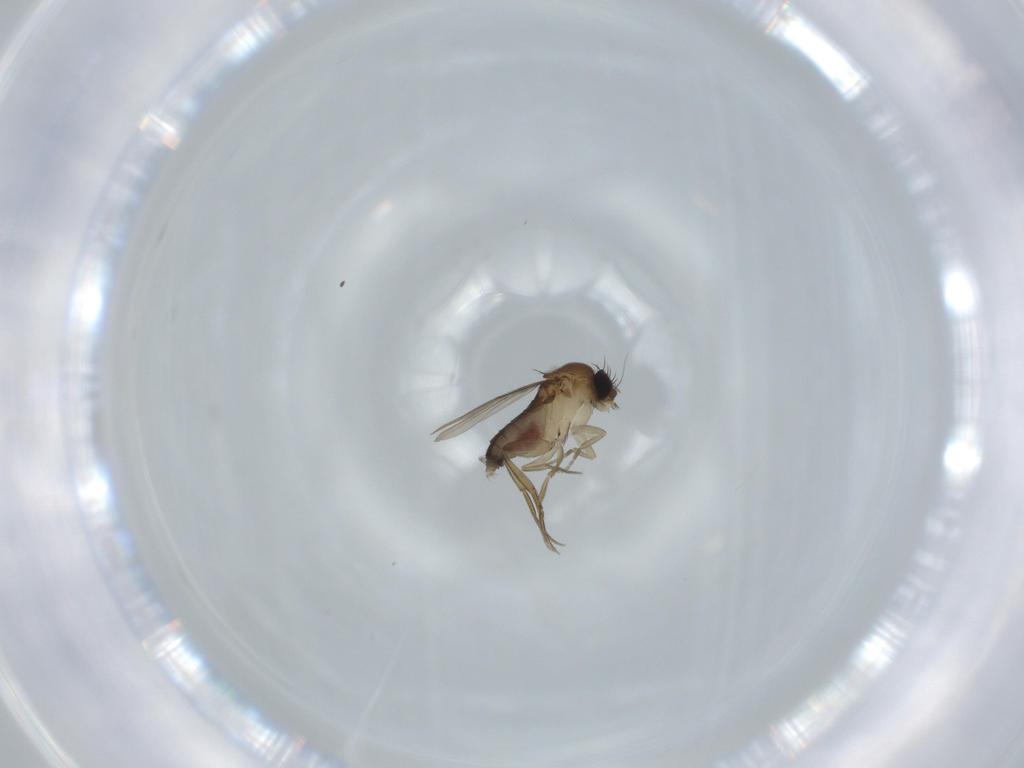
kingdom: Animalia
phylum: Arthropoda
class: Insecta
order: Diptera
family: Phoridae
